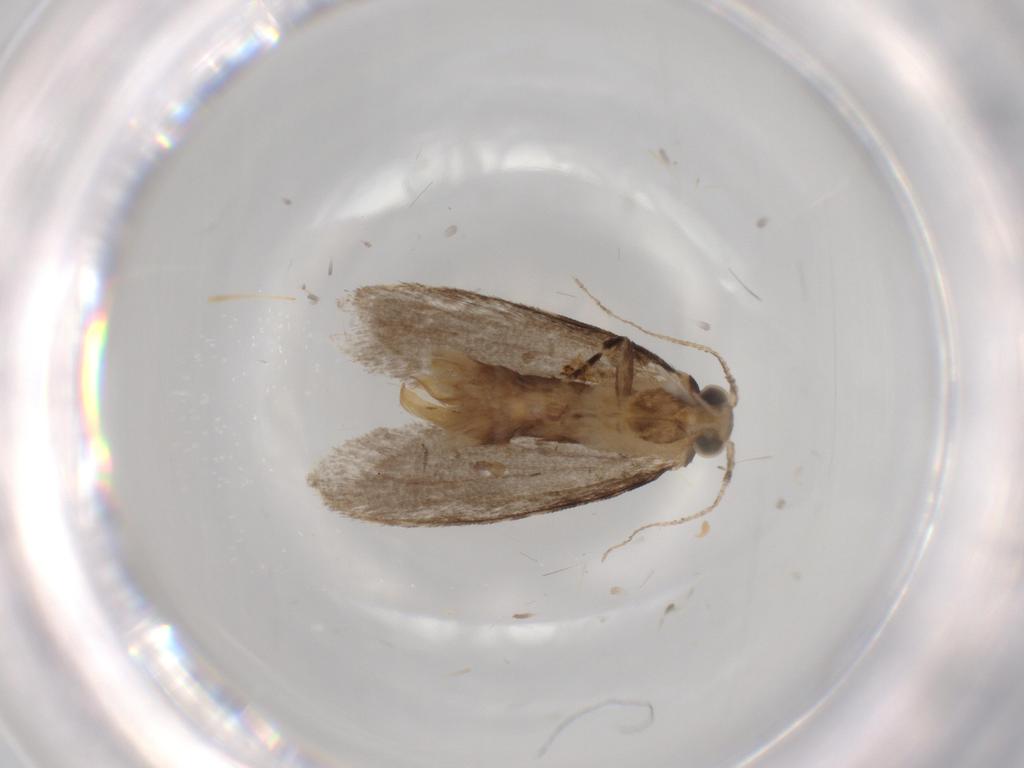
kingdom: Animalia
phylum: Arthropoda
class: Insecta
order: Lepidoptera
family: Tineidae
